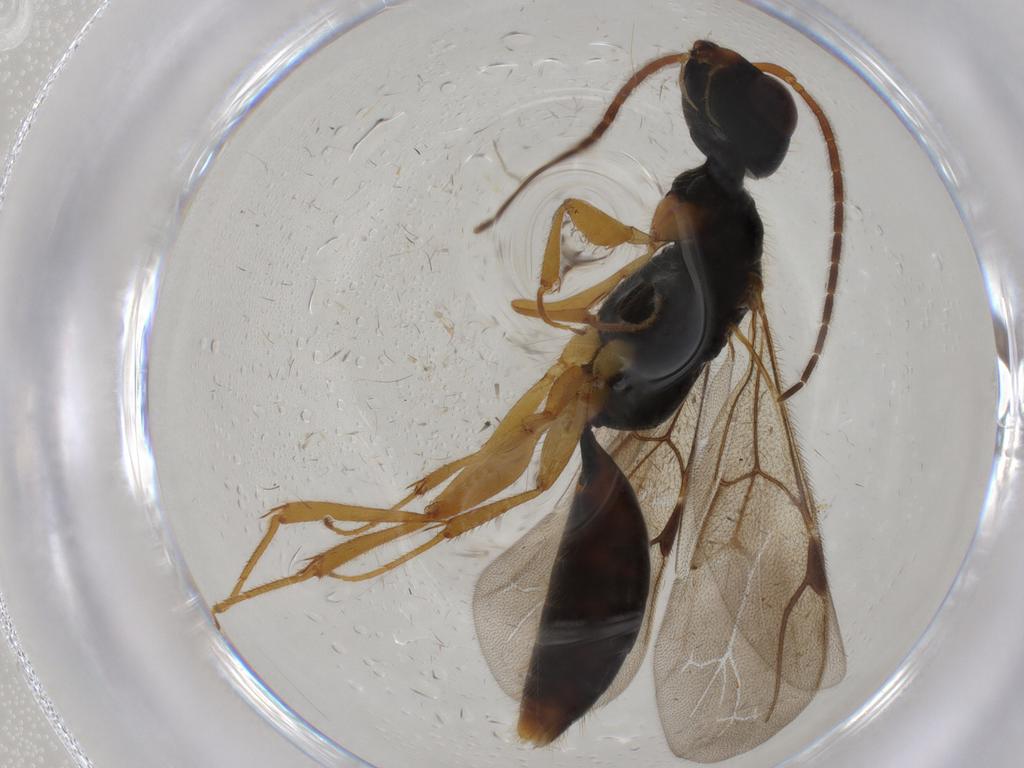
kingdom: Animalia
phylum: Arthropoda
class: Insecta
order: Hymenoptera
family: Bethylidae
